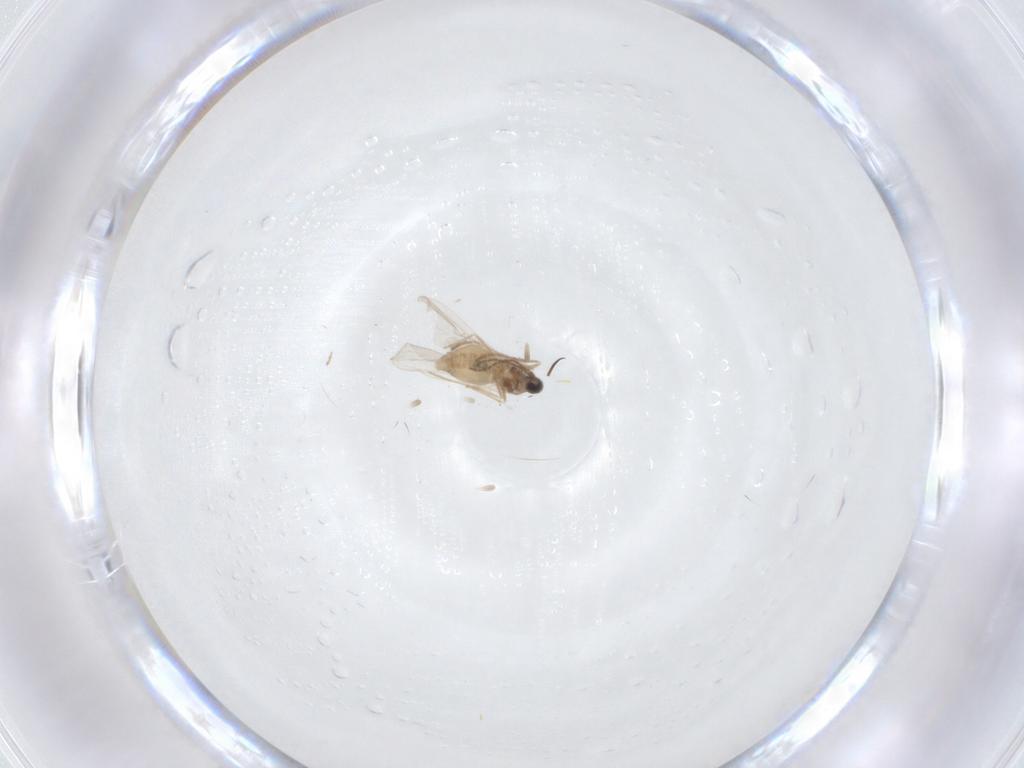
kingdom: Animalia
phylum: Arthropoda
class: Insecta
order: Diptera
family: Cecidomyiidae
